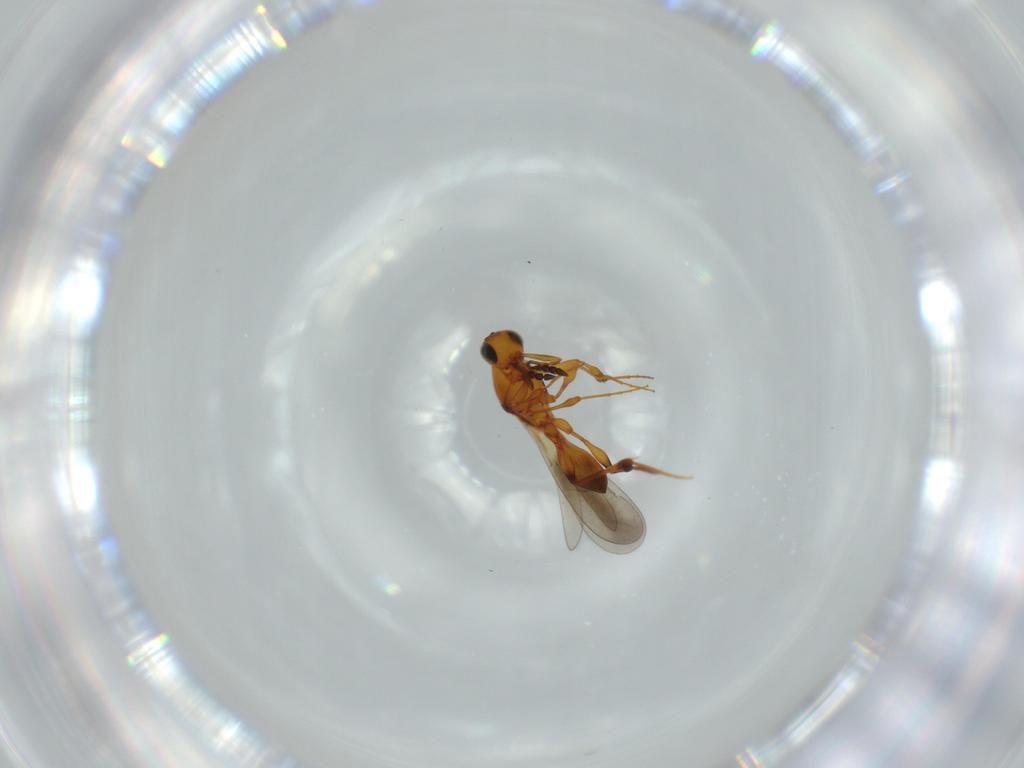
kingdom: Animalia
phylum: Arthropoda
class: Insecta
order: Hymenoptera
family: Platygastridae
